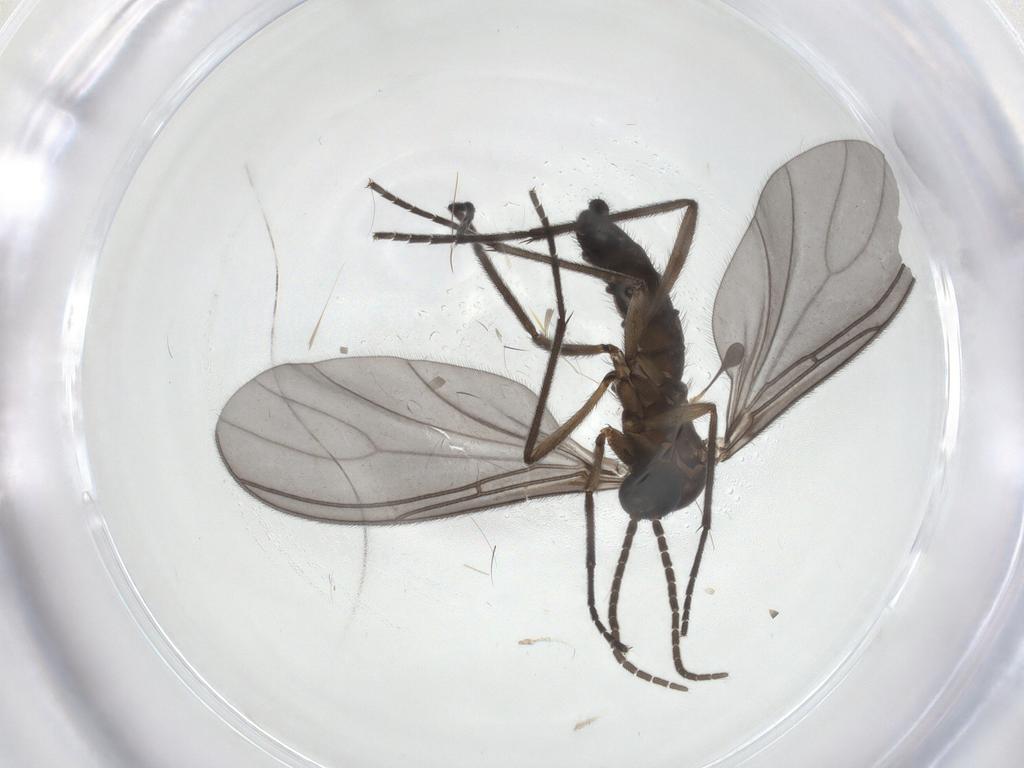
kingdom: Animalia
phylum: Arthropoda
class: Insecta
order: Diptera
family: Sciaridae
